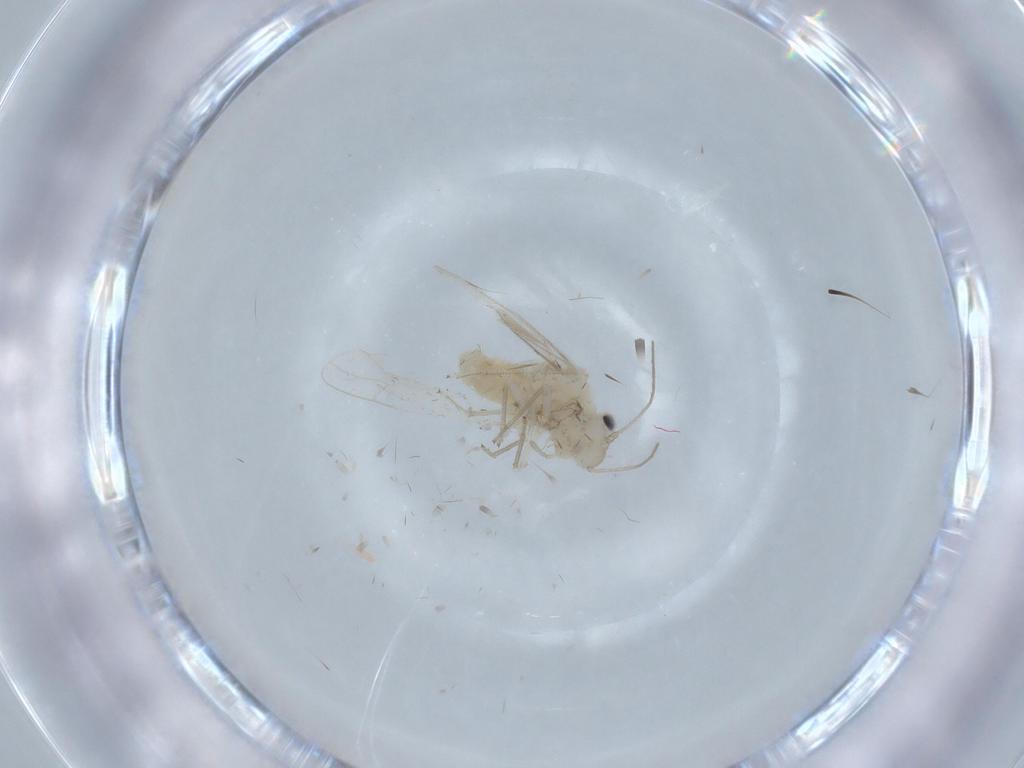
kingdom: Animalia
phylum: Arthropoda
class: Insecta
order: Psocodea
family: Caeciliusidae
